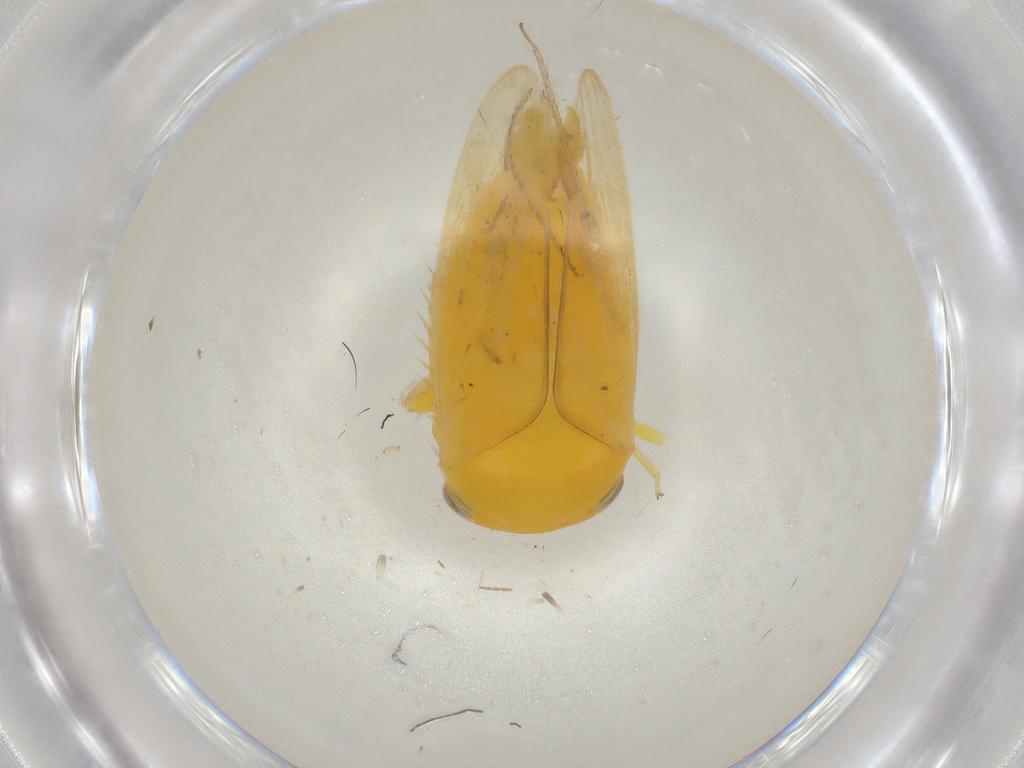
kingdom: Animalia
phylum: Arthropoda
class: Insecta
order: Hemiptera
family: Cicadellidae
